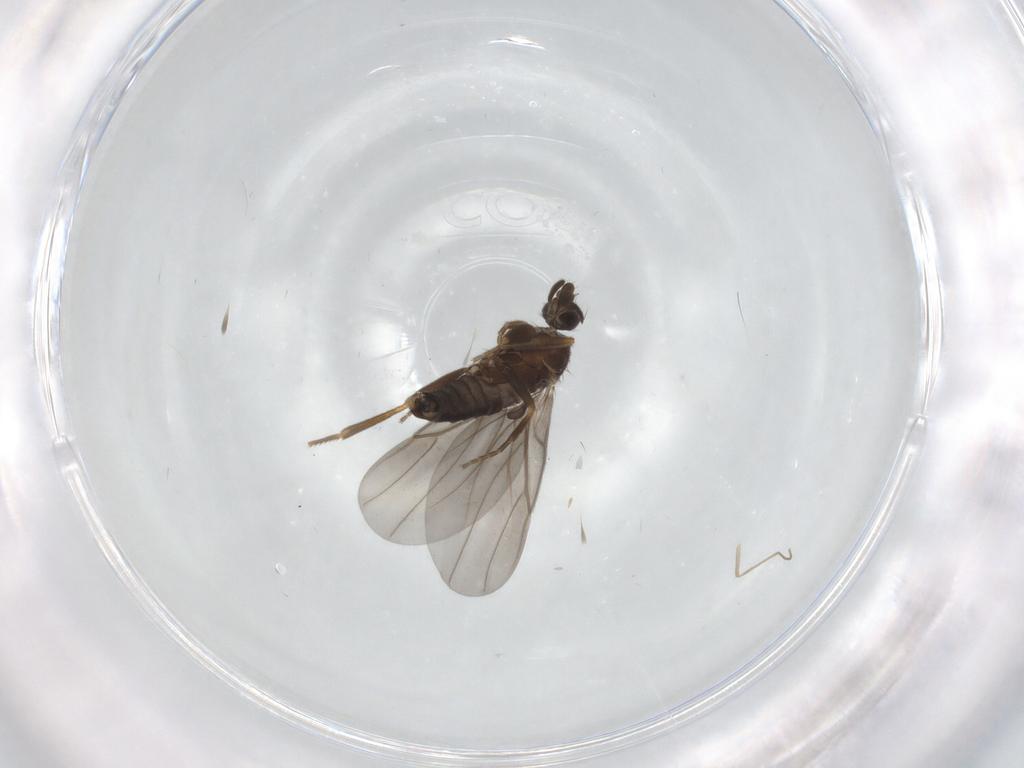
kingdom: Animalia
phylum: Arthropoda
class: Insecta
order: Diptera
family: Chironomidae
